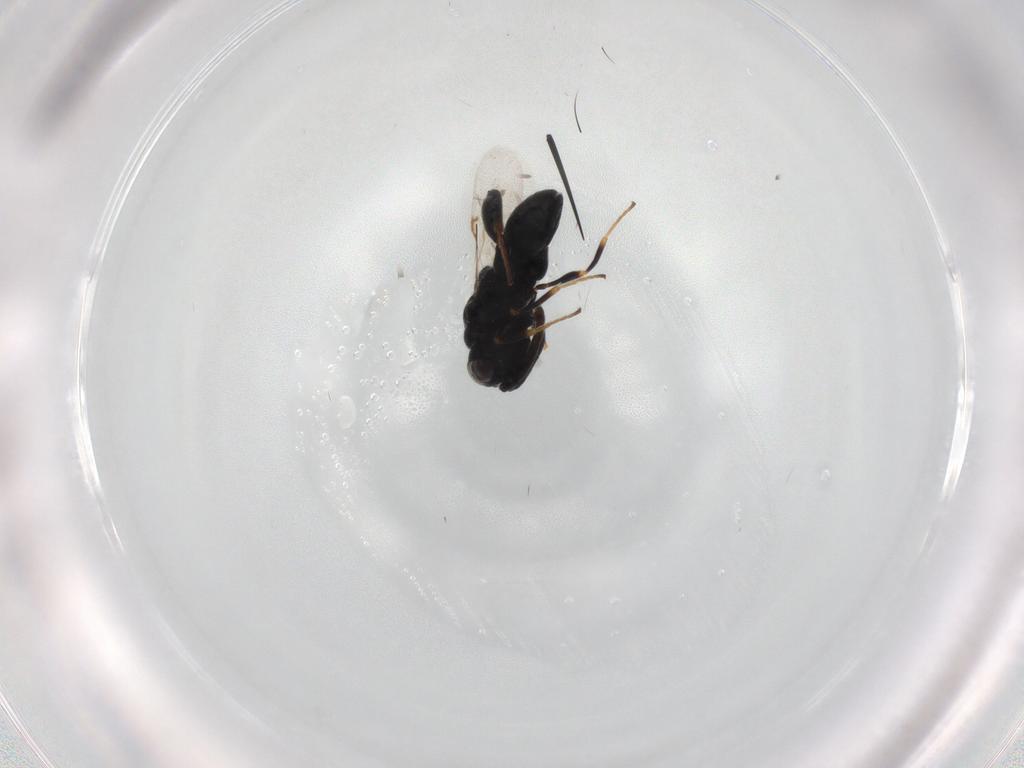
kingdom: Animalia
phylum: Arthropoda
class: Insecta
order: Hymenoptera
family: Chalcididae
